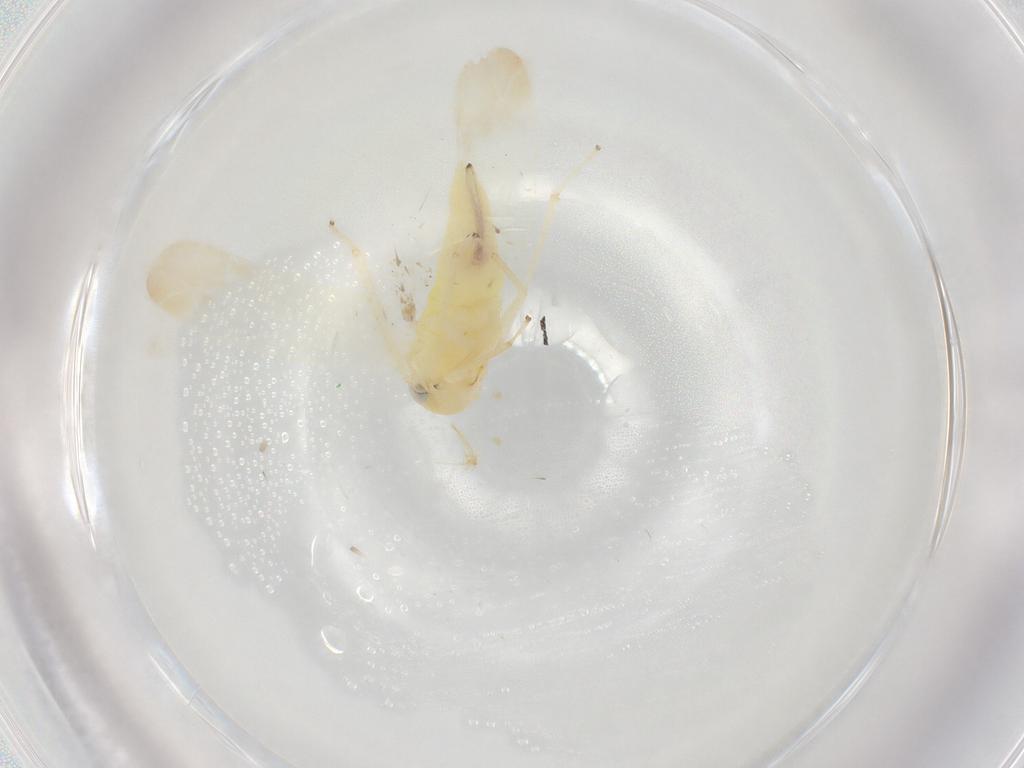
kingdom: Animalia
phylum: Arthropoda
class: Insecta
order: Hemiptera
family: Cicadellidae
